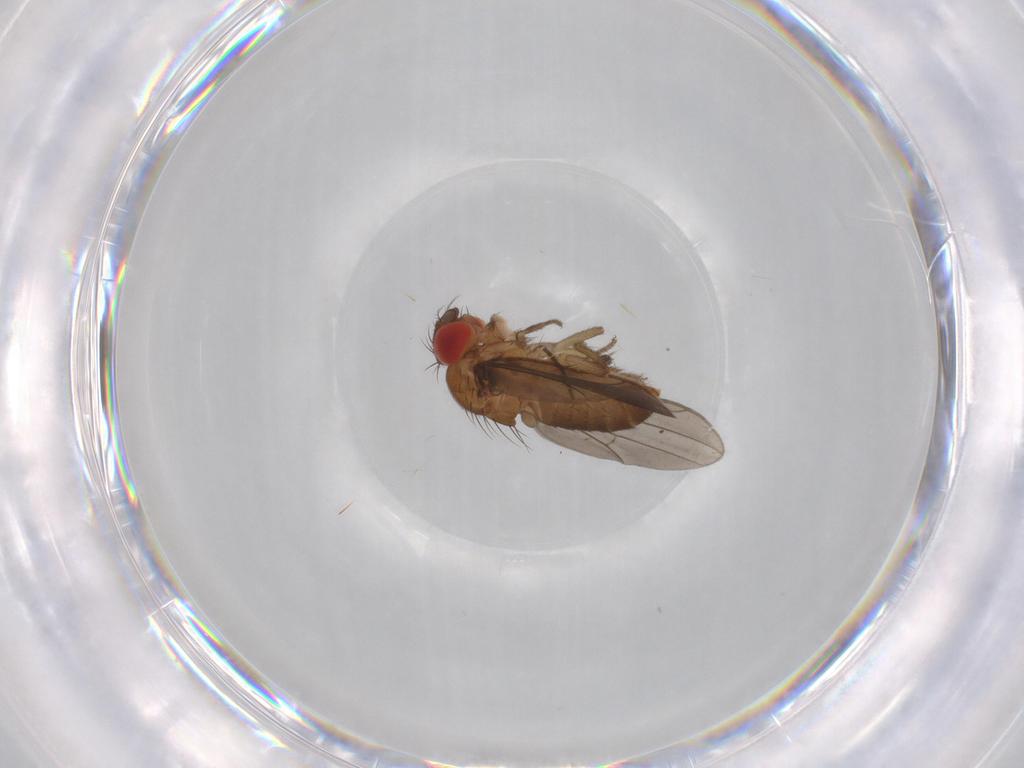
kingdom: Animalia
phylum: Arthropoda
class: Insecta
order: Diptera
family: Drosophilidae
